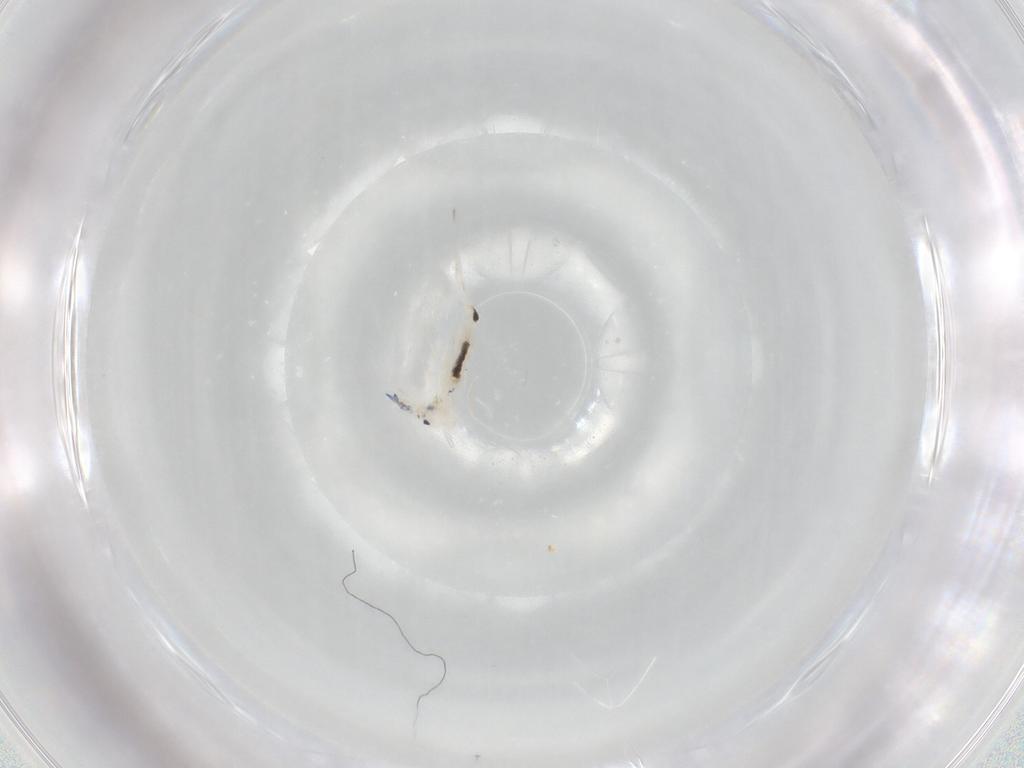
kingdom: Animalia
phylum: Arthropoda
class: Collembola
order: Entomobryomorpha
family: Entomobryidae
